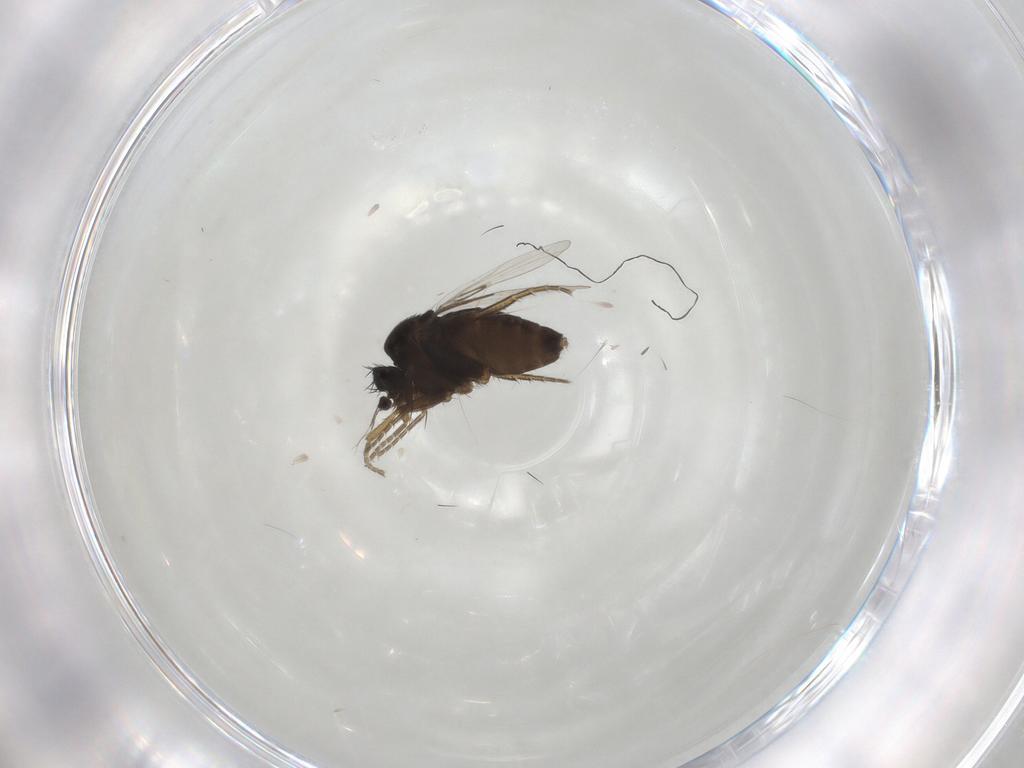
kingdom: Animalia
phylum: Arthropoda
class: Insecta
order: Diptera
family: Phoridae
